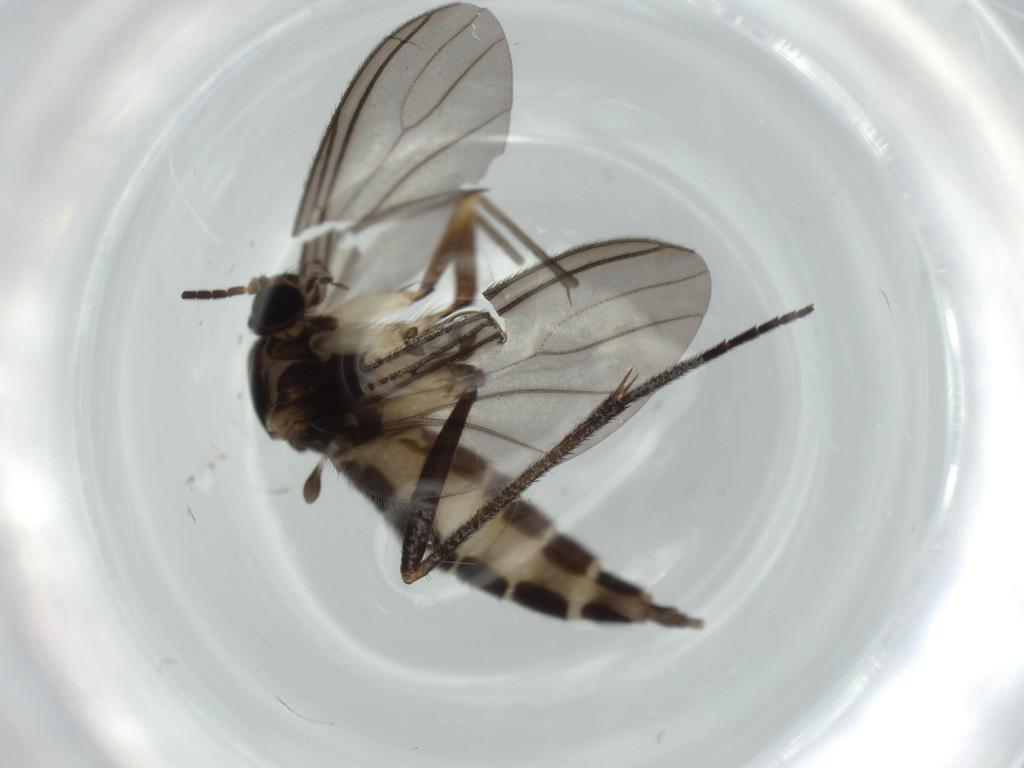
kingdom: Animalia
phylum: Arthropoda
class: Insecta
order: Diptera
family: Sciaridae
